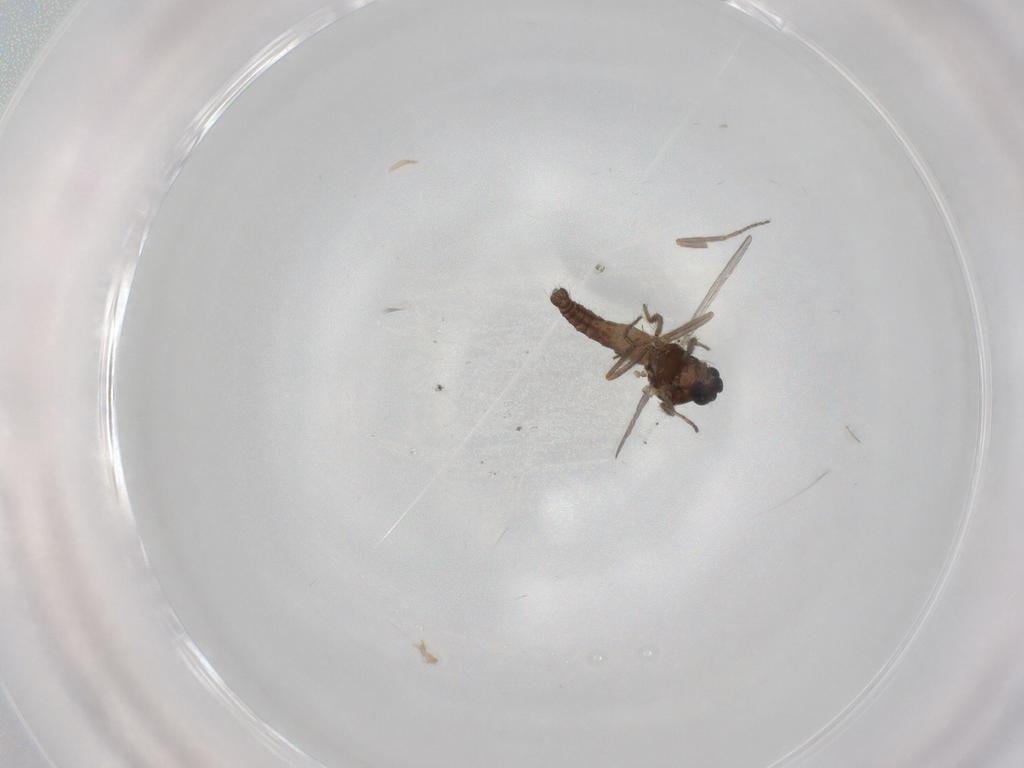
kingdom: Animalia
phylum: Arthropoda
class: Insecta
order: Diptera
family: Ceratopogonidae
